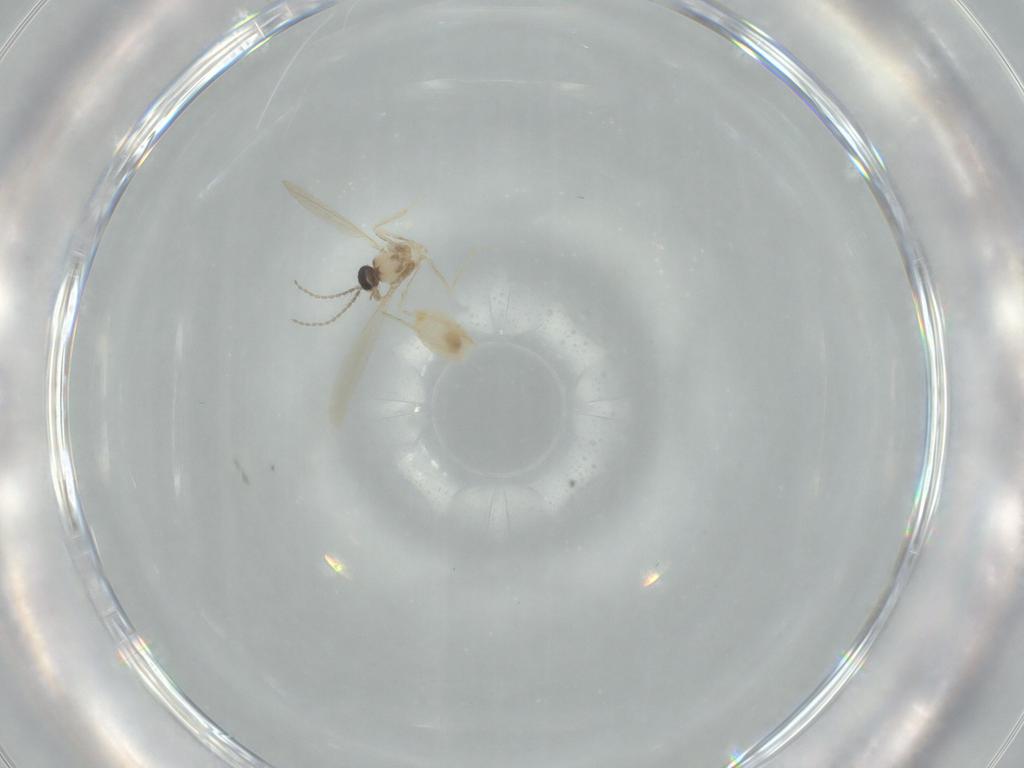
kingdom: Animalia
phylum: Arthropoda
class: Insecta
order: Diptera
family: Cecidomyiidae
